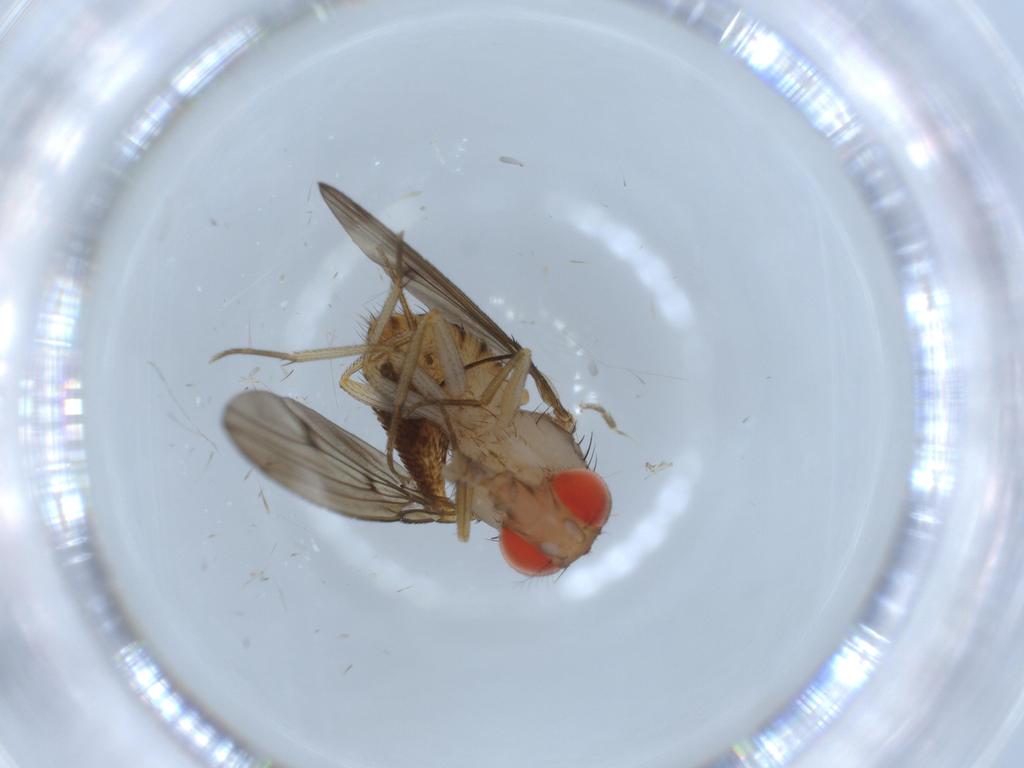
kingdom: Animalia
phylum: Arthropoda
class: Insecta
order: Diptera
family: Drosophilidae
